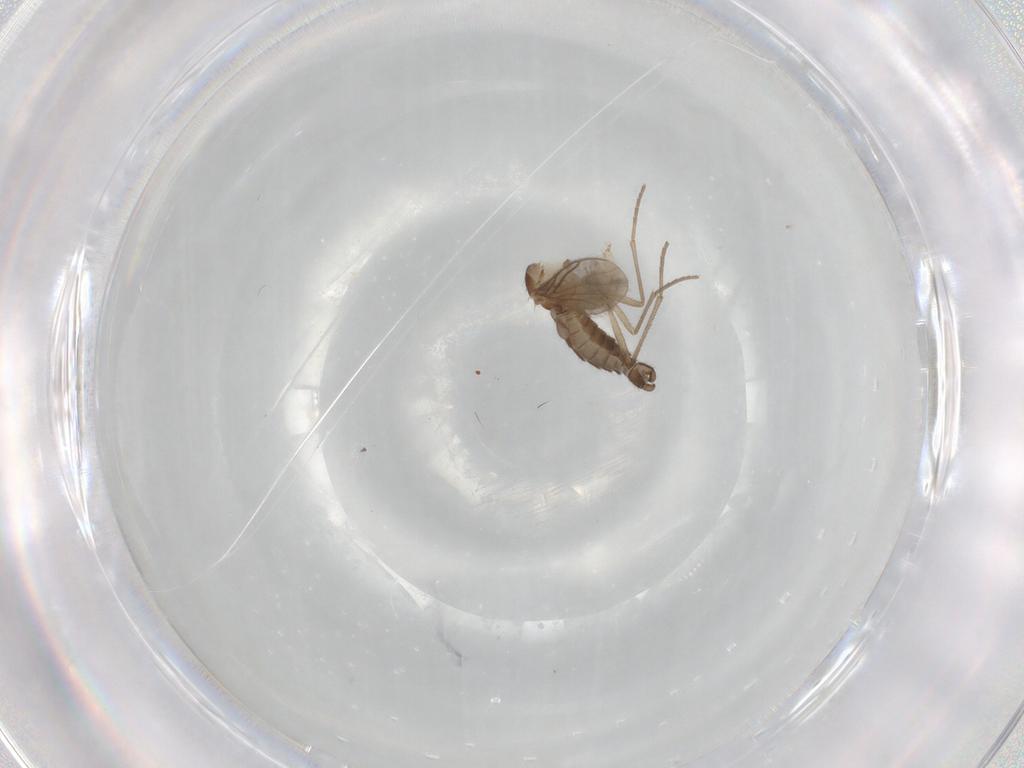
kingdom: Animalia
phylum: Arthropoda
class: Insecta
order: Diptera
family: Sciaridae
